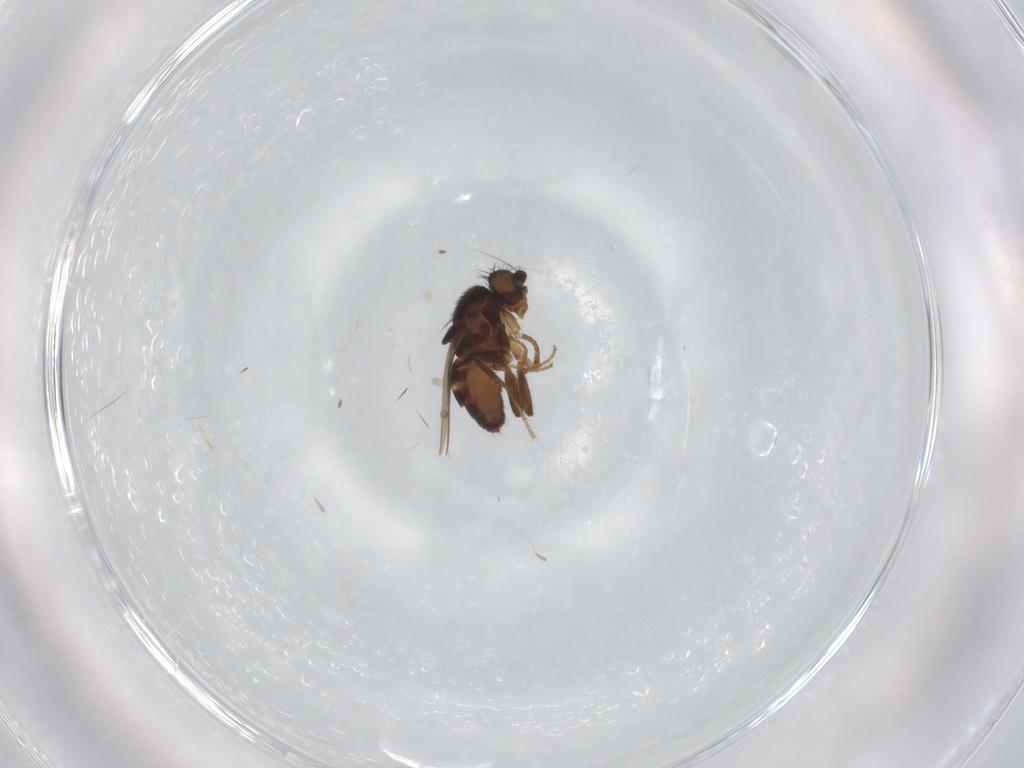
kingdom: Animalia
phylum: Arthropoda
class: Insecta
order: Diptera
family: Sphaeroceridae
